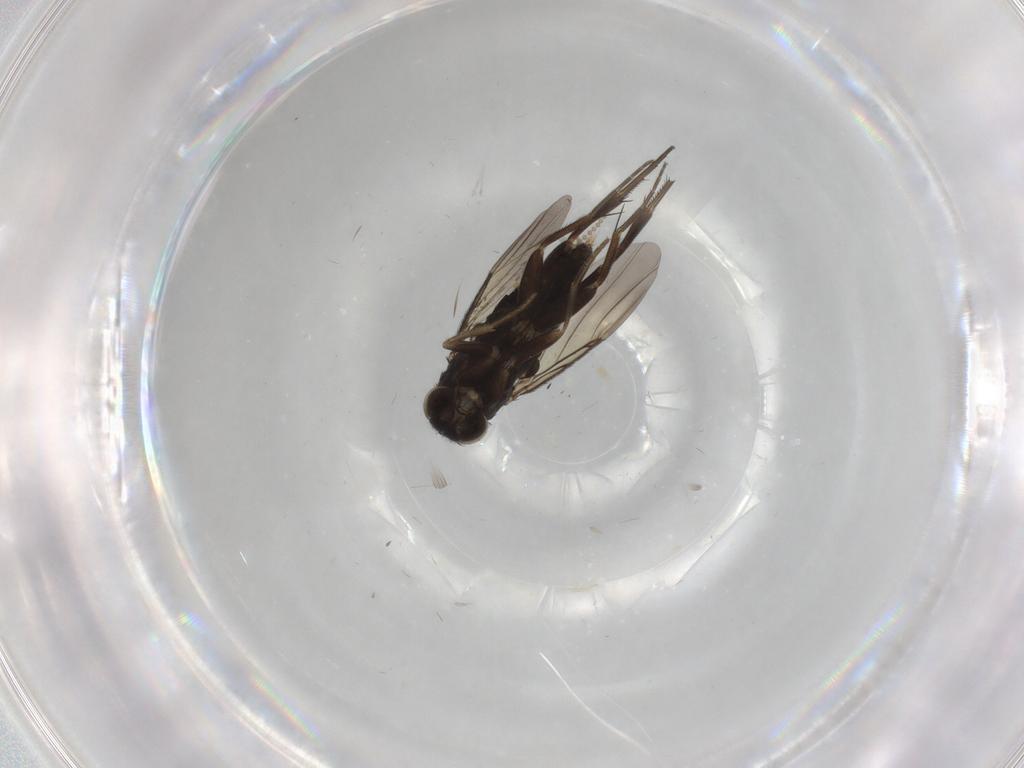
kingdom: Animalia
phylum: Arthropoda
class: Insecta
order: Diptera
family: Phoridae
